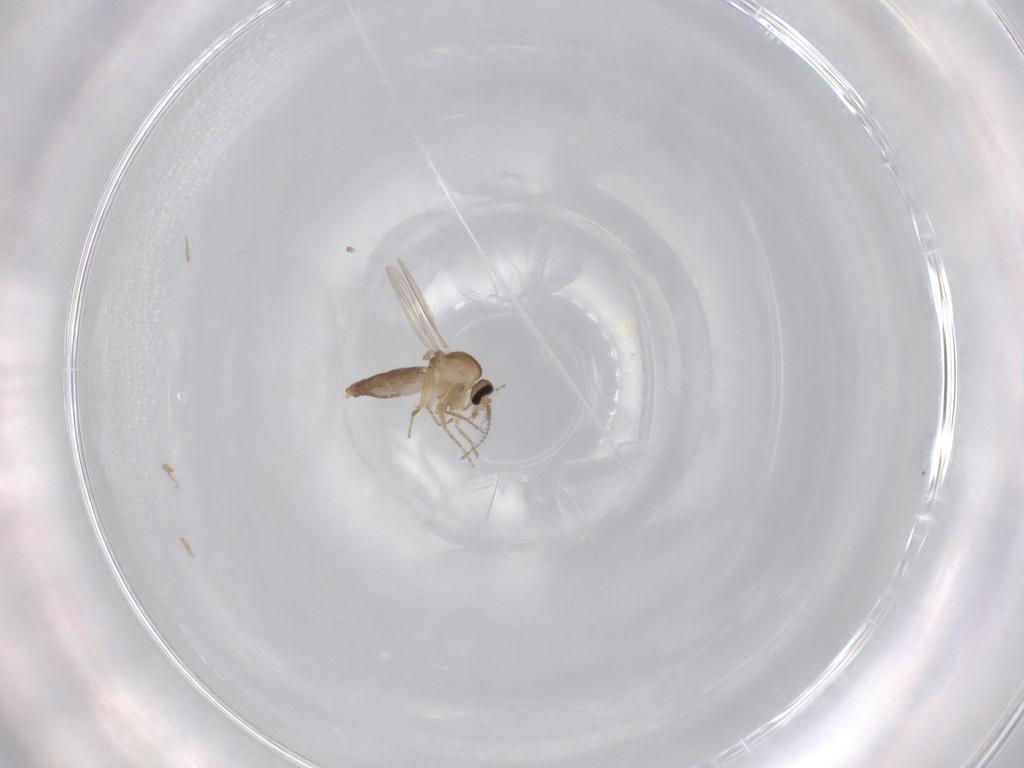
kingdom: Animalia
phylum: Arthropoda
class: Insecta
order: Diptera
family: Ceratopogonidae
